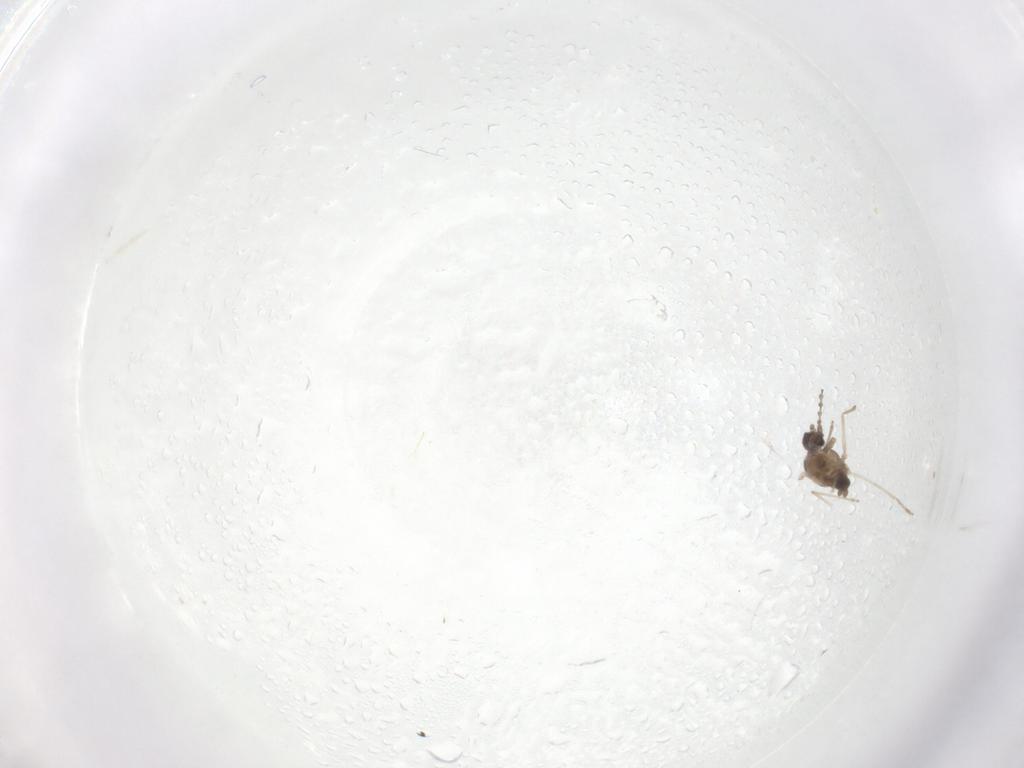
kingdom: Animalia
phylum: Arthropoda
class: Insecta
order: Diptera
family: Cecidomyiidae
